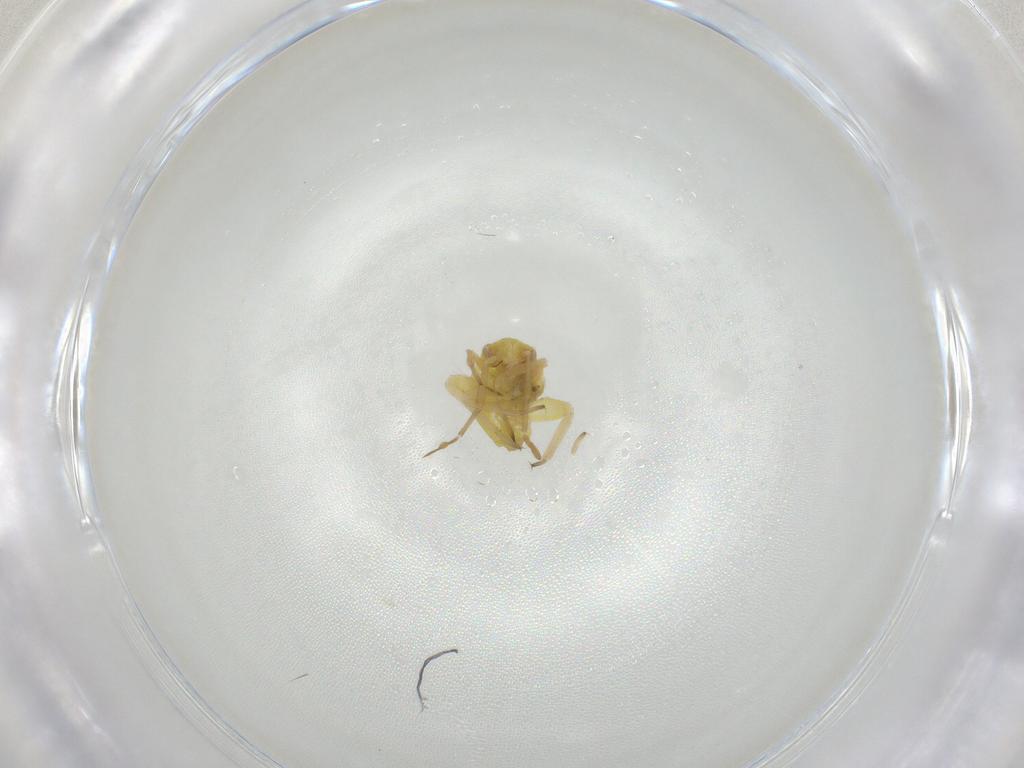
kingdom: Animalia
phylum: Arthropoda
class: Insecta
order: Hemiptera
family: Miridae
